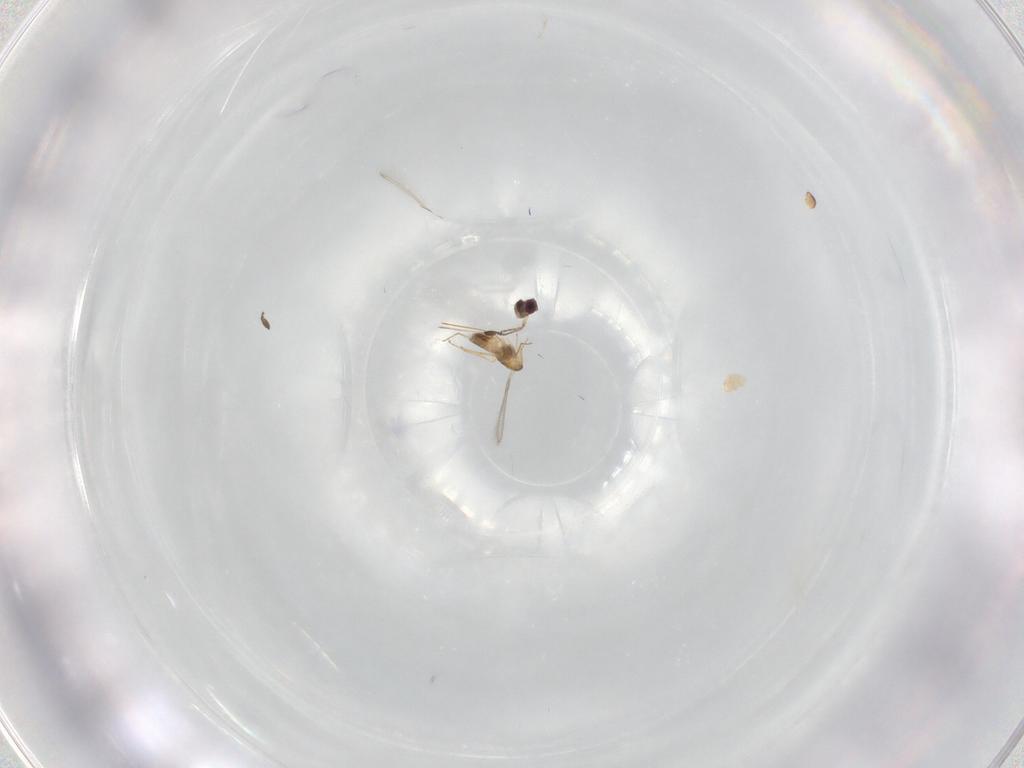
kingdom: Animalia
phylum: Arthropoda
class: Insecta
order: Hymenoptera
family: Mymaridae
